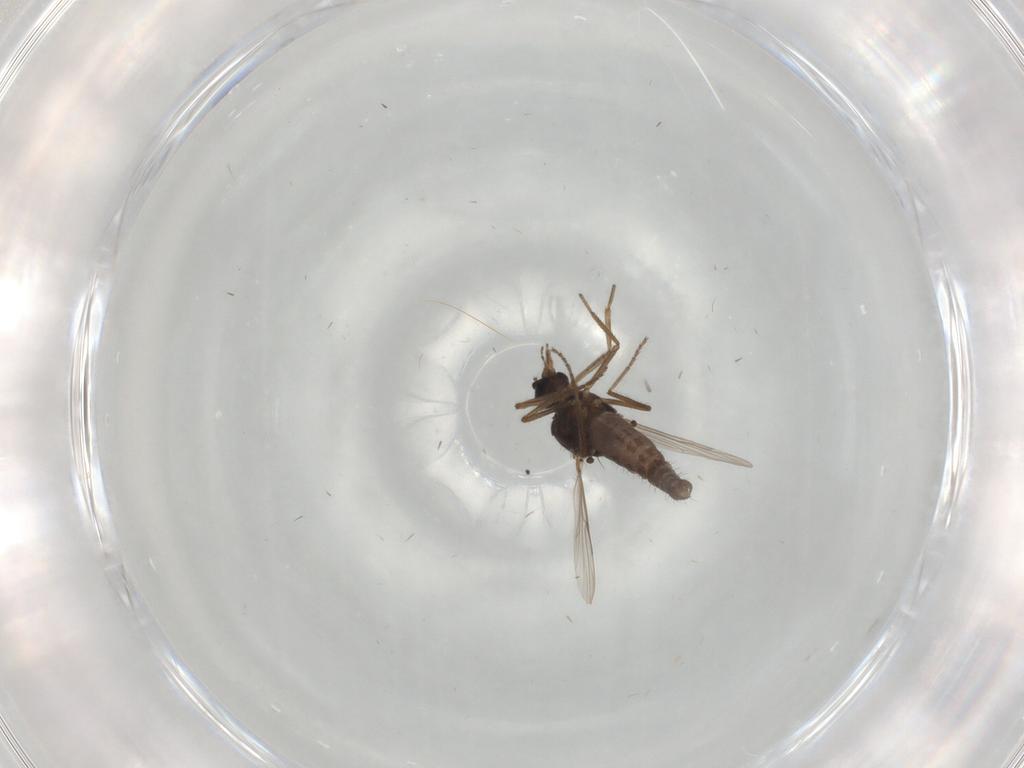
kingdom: Animalia
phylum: Arthropoda
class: Insecta
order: Diptera
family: Ceratopogonidae
